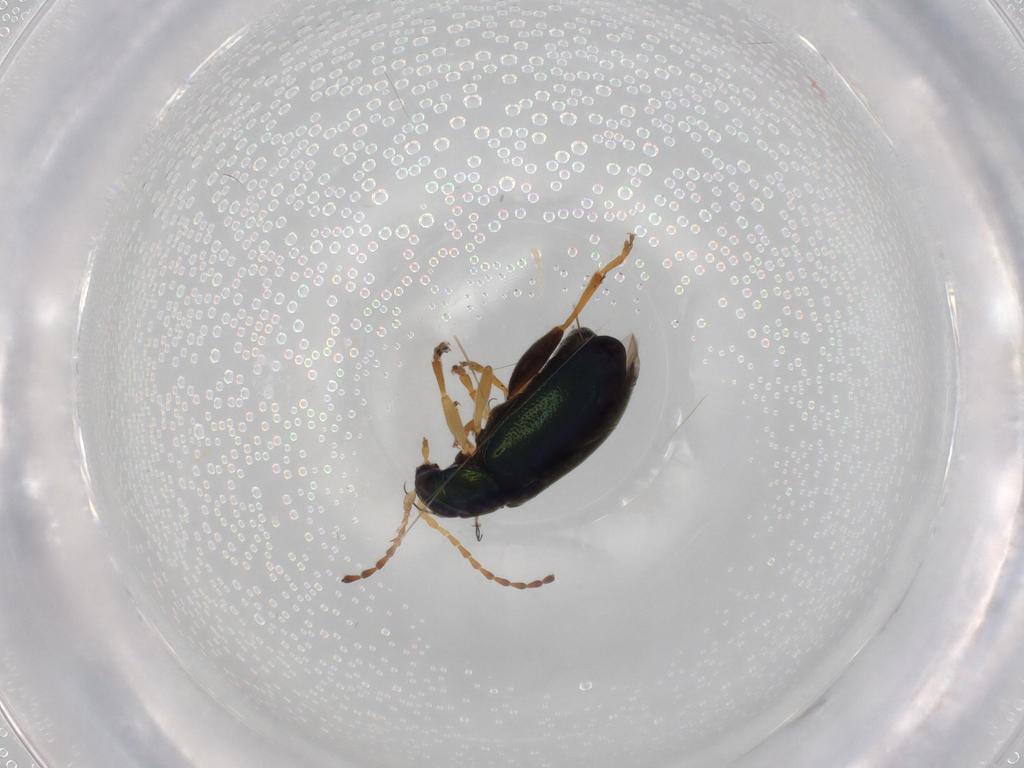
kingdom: Animalia
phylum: Arthropoda
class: Insecta
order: Coleoptera
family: Chrysomelidae
